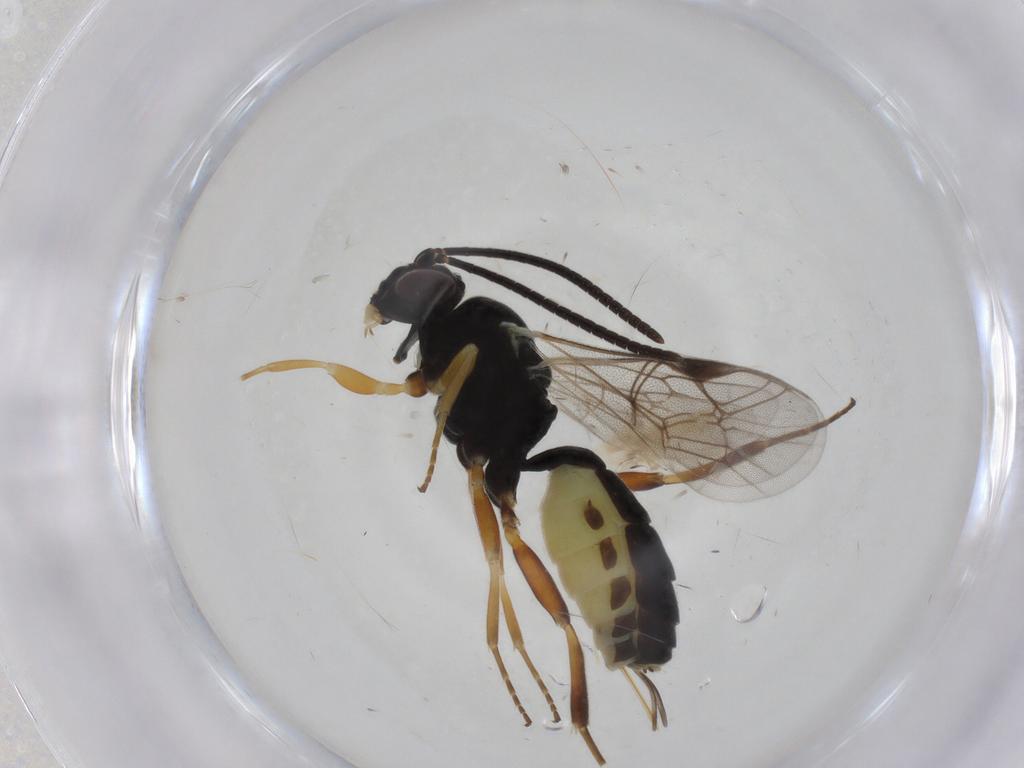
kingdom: Animalia
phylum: Arthropoda
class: Insecta
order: Hymenoptera
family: Ichneumonidae
